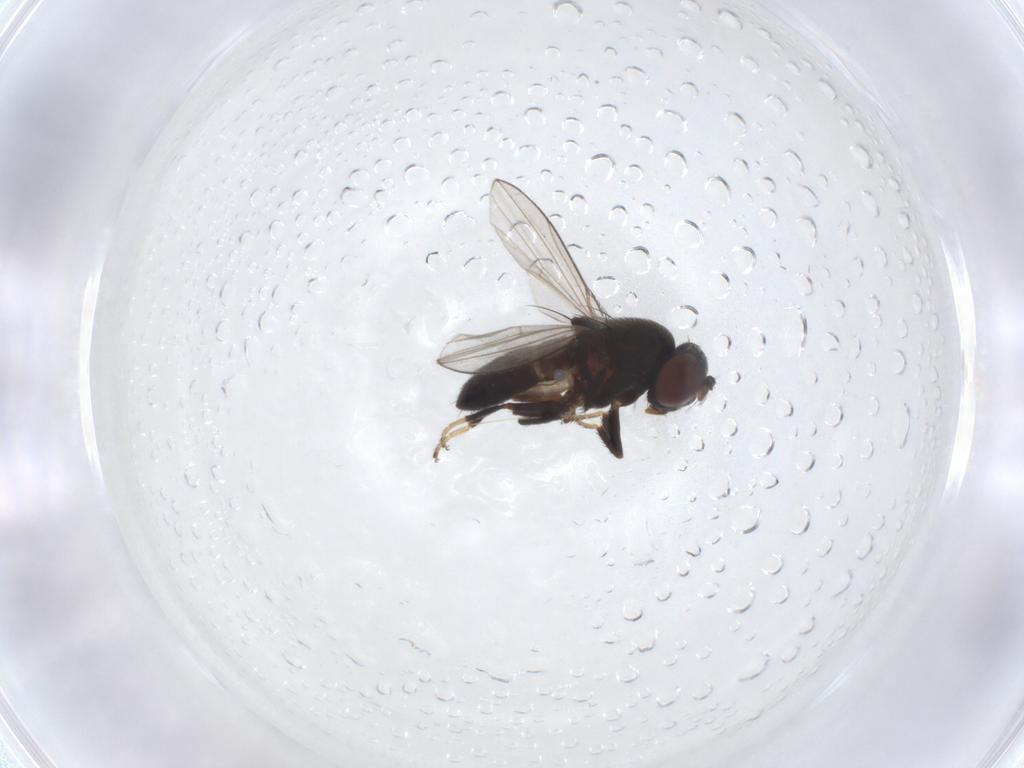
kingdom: Animalia
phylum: Arthropoda
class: Insecta
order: Diptera
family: Ephydridae
